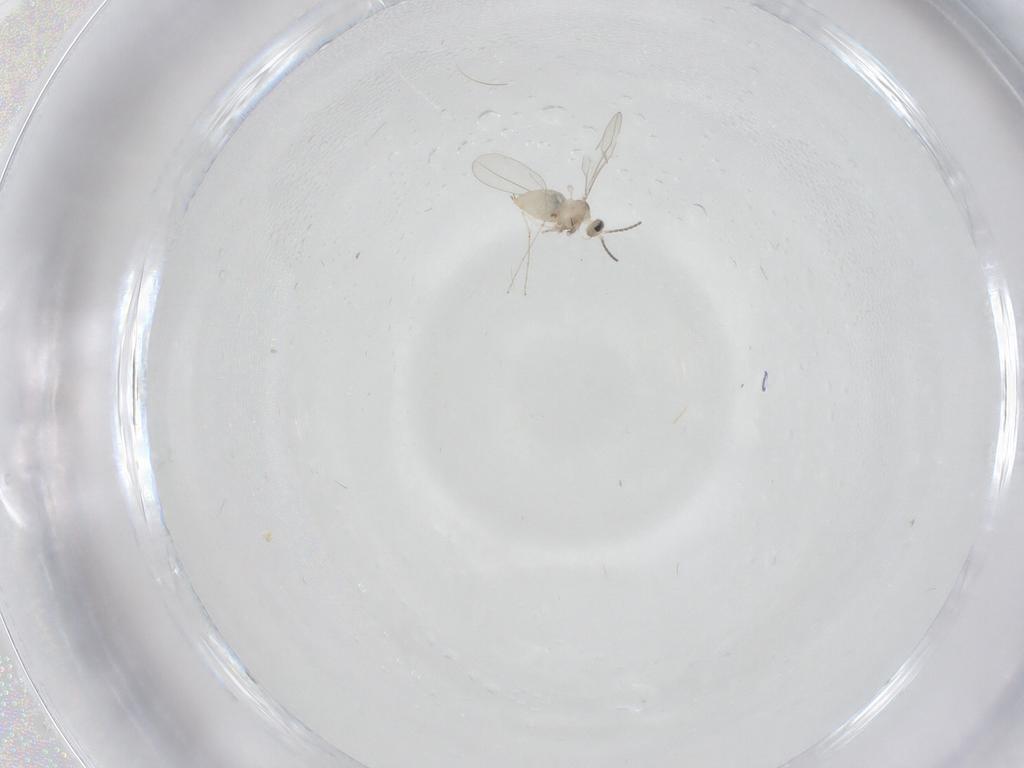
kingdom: Animalia
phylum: Arthropoda
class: Insecta
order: Diptera
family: Cecidomyiidae
